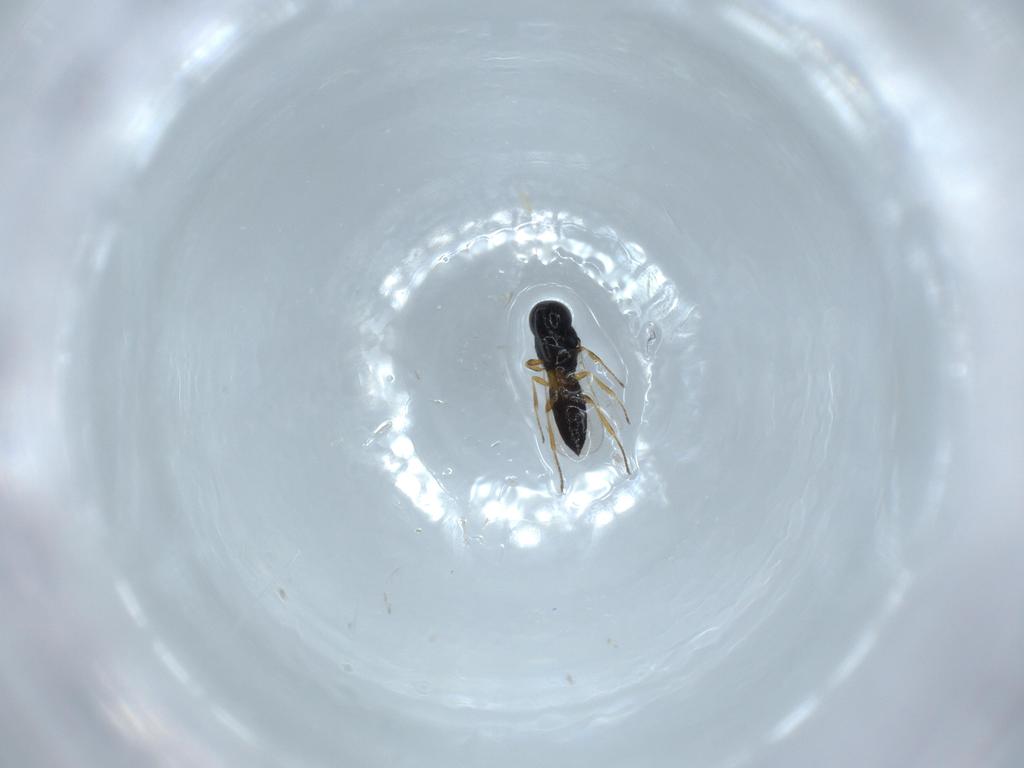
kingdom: Animalia
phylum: Arthropoda
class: Insecta
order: Hymenoptera
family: Scelionidae
